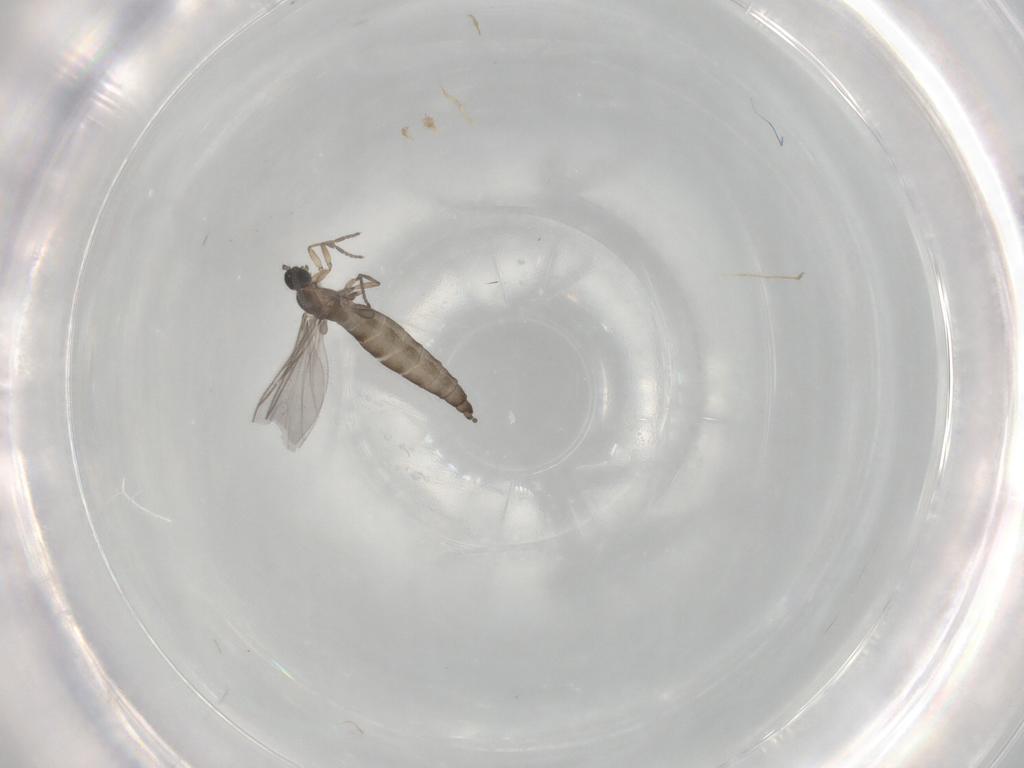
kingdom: Animalia
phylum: Arthropoda
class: Insecta
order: Diptera
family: Sciaridae
